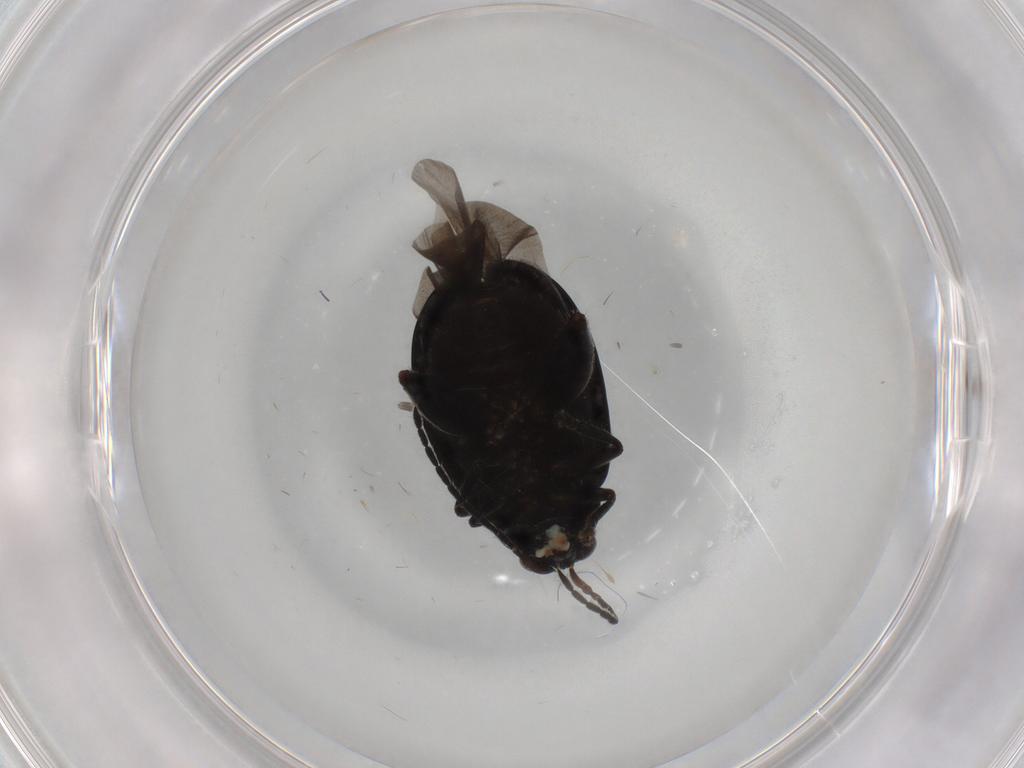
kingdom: Animalia
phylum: Arthropoda
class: Insecta
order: Coleoptera
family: Chrysomelidae
